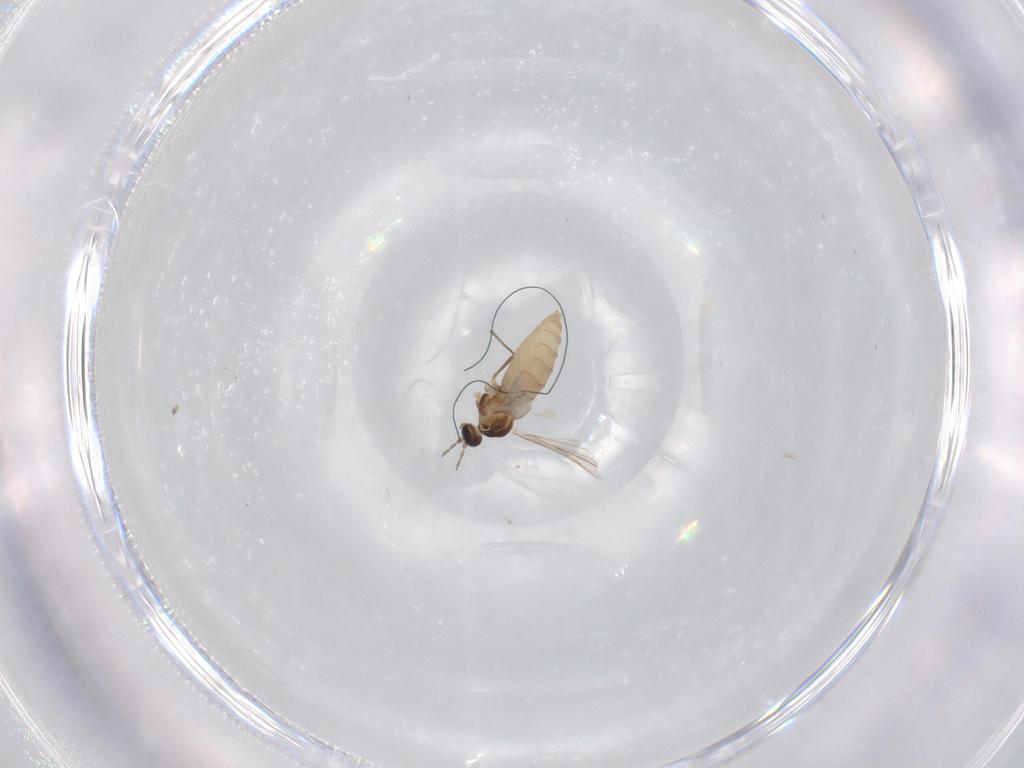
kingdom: Animalia
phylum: Arthropoda
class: Insecta
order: Diptera
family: Cecidomyiidae
